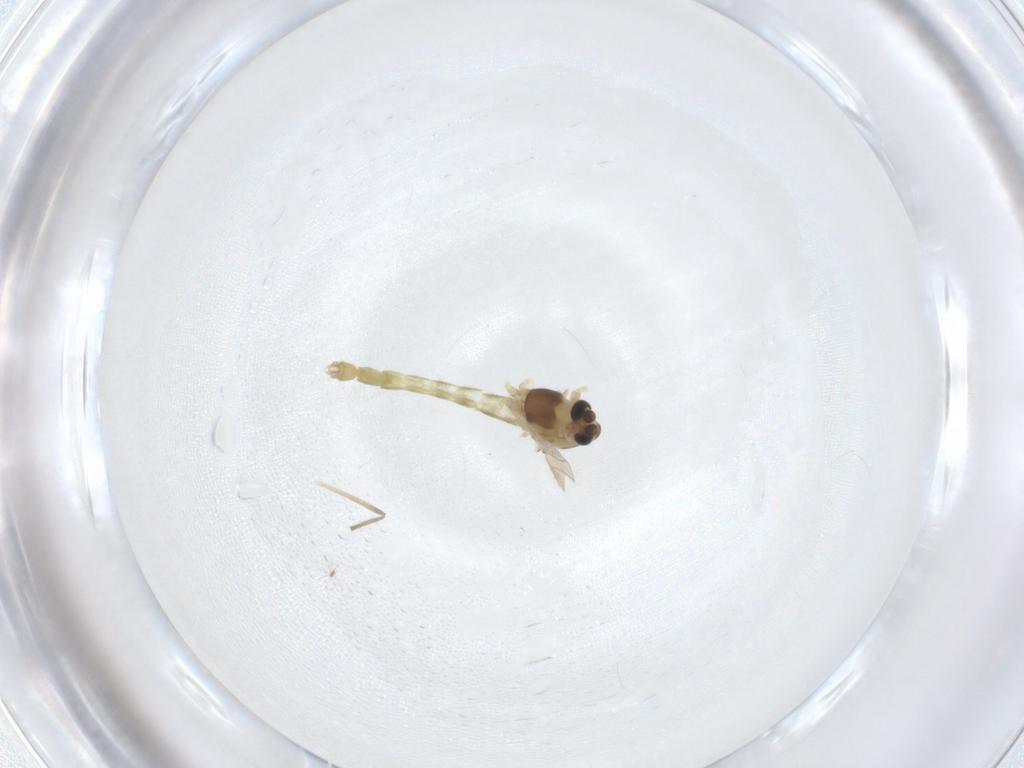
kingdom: Animalia
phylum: Arthropoda
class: Insecta
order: Diptera
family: Chironomidae
